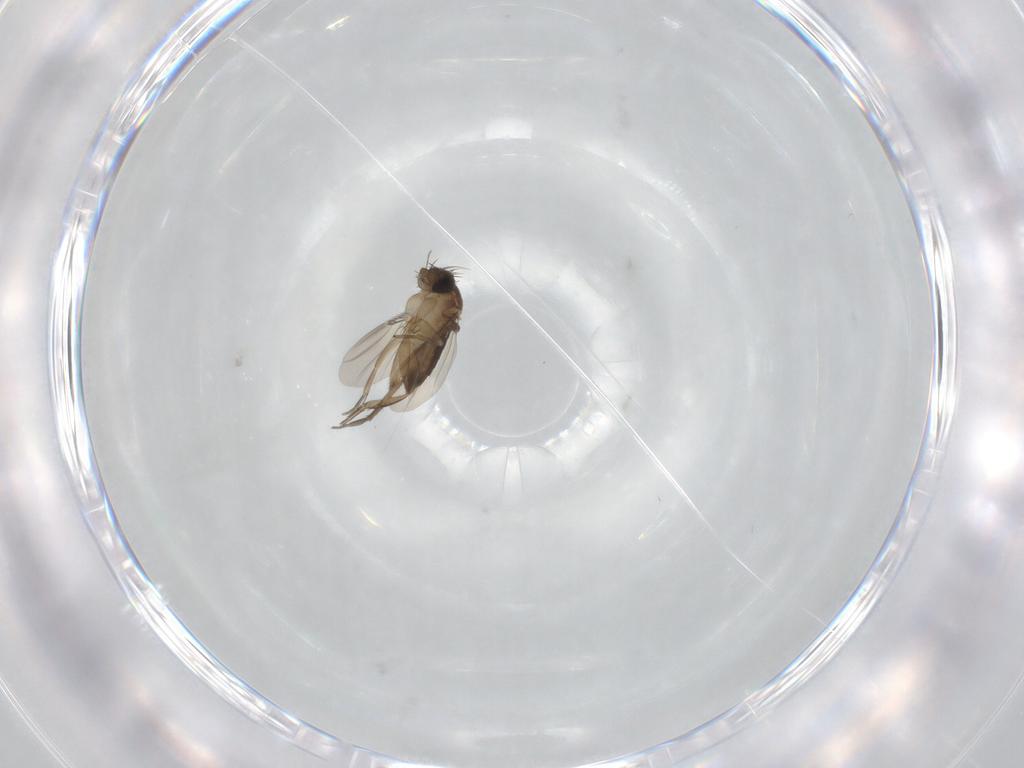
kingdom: Animalia
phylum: Arthropoda
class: Insecta
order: Diptera
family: Phoridae
